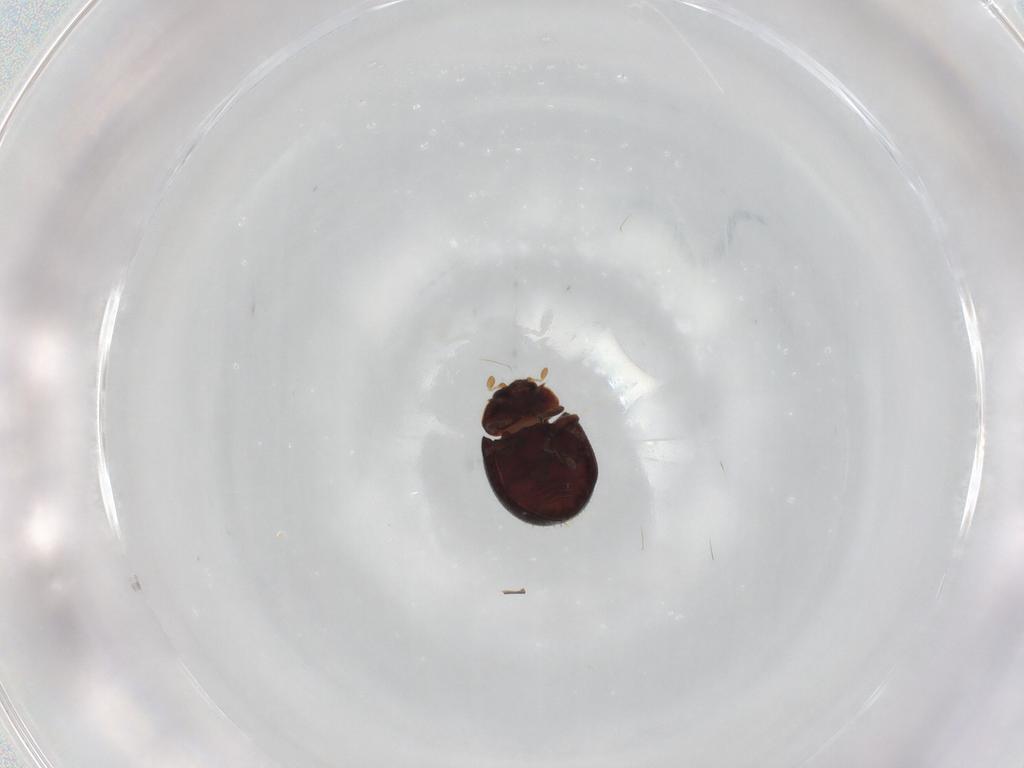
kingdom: Animalia
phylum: Arthropoda
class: Insecta
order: Coleoptera
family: Coccinellidae
